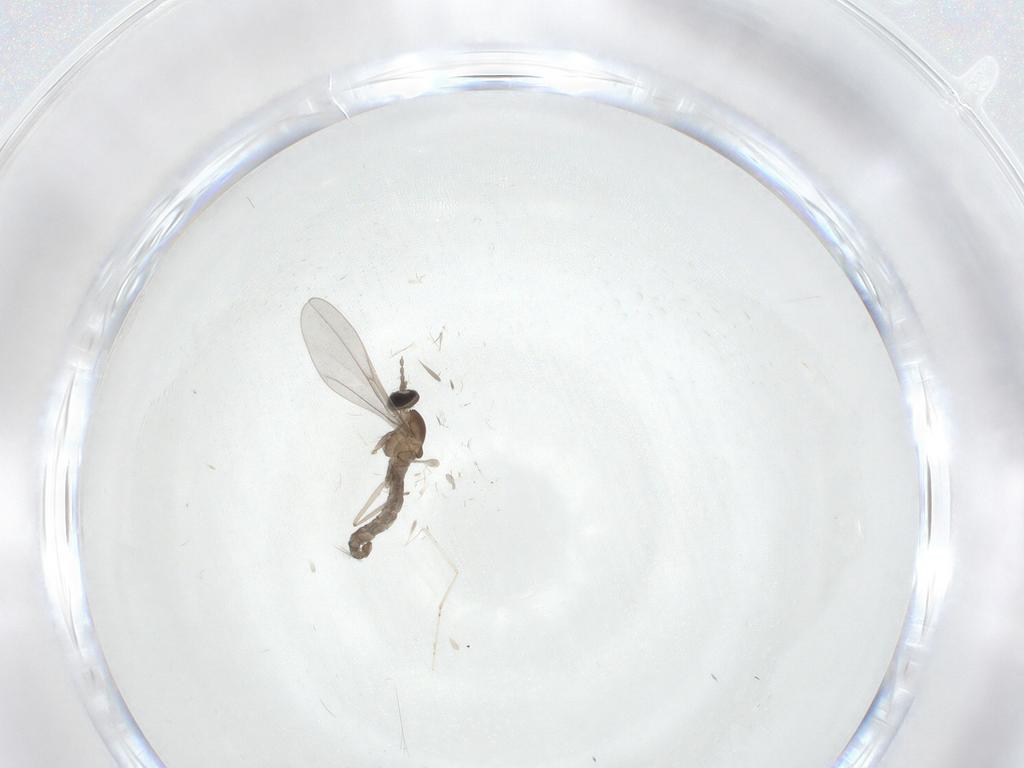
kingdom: Animalia
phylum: Arthropoda
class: Insecta
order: Diptera
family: Cecidomyiidae
